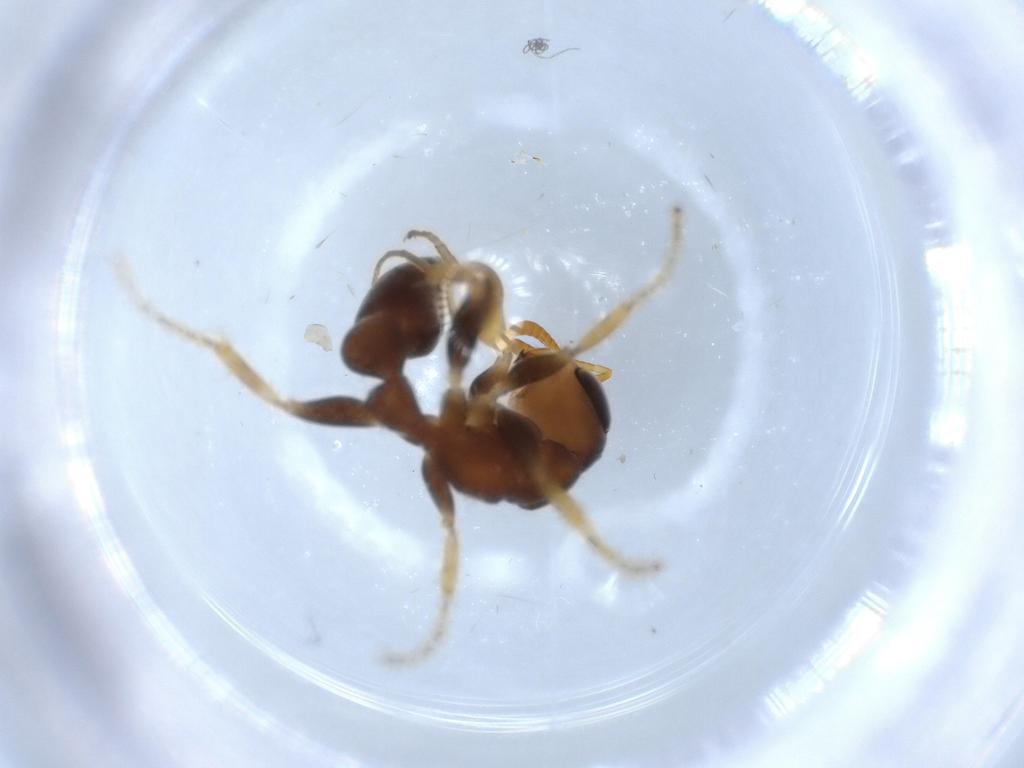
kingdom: Animalia
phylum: Arthropoda
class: Insecta
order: Hymenoptera
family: Formicidae
